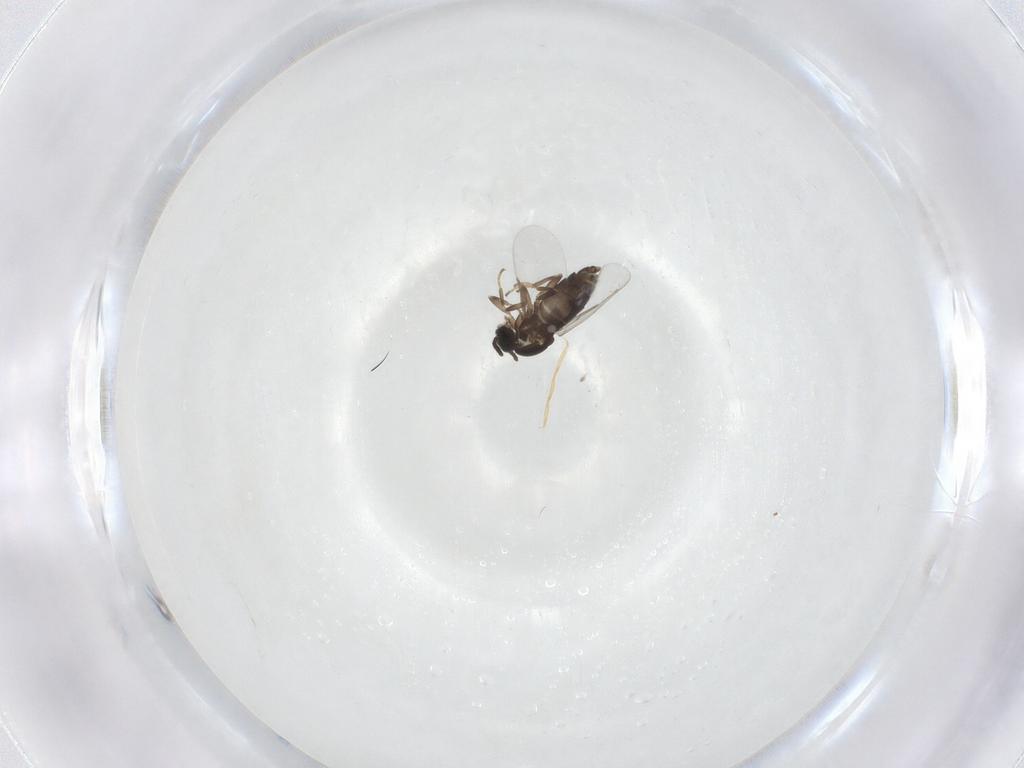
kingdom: Animalia
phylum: Arthropoda
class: Insecta
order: Diptera
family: Scatopsidae
